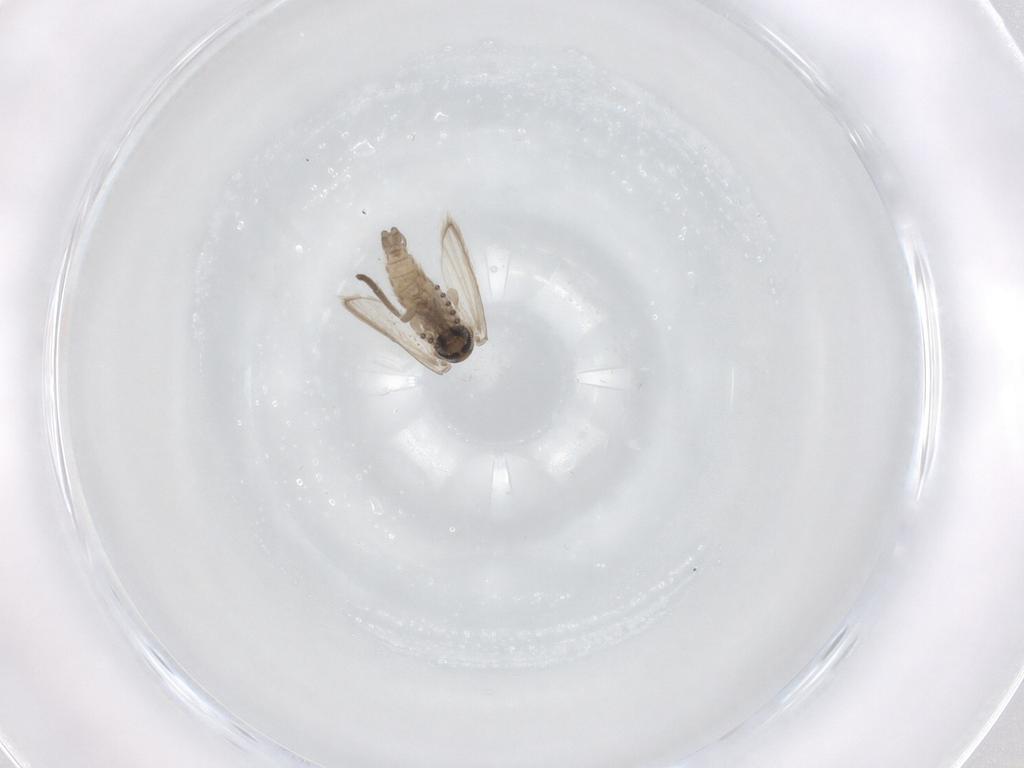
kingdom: Animalia
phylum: Arthropoda
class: Insecta
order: Diptera
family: Psychodidae
